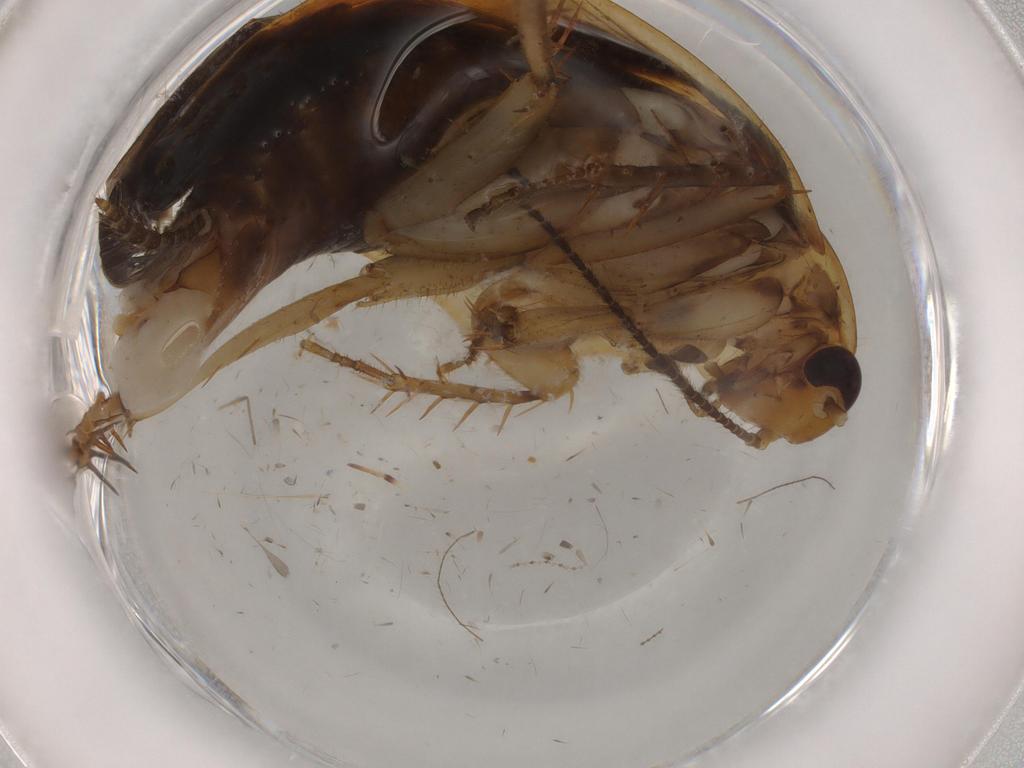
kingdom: Animalia
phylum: Arthropoda
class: Insecta
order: Blattodea
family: Ectobiidae
